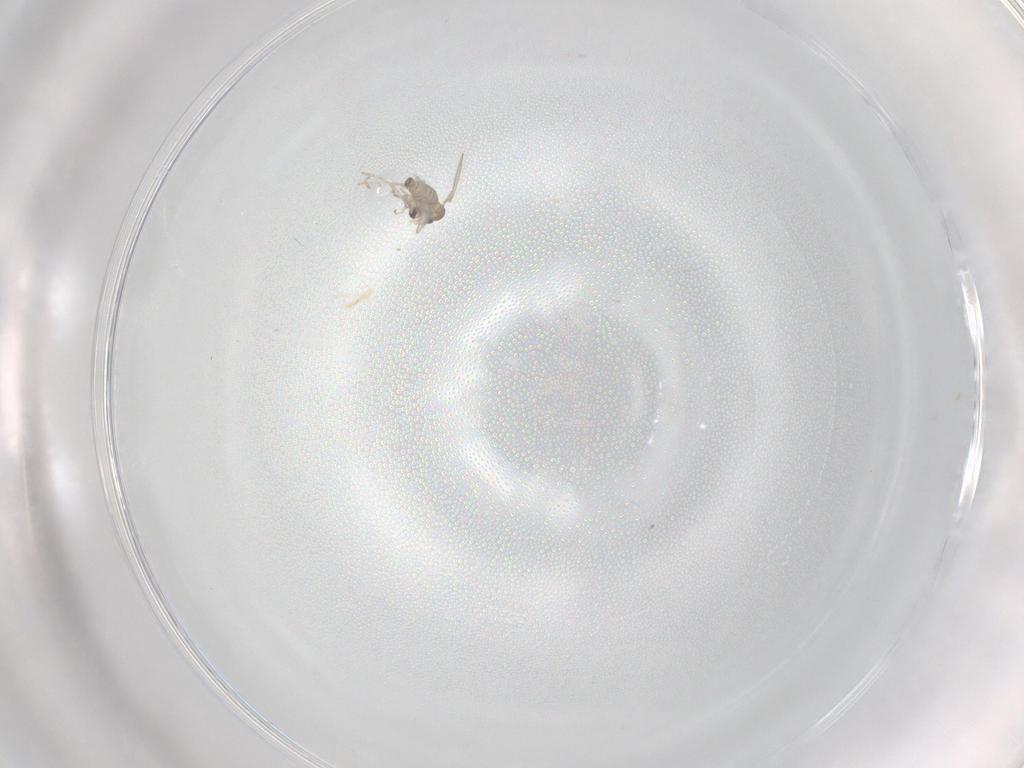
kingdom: Animalia
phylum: Arthropoda
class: Insecta
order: Diptera
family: Cecidomyiidae
